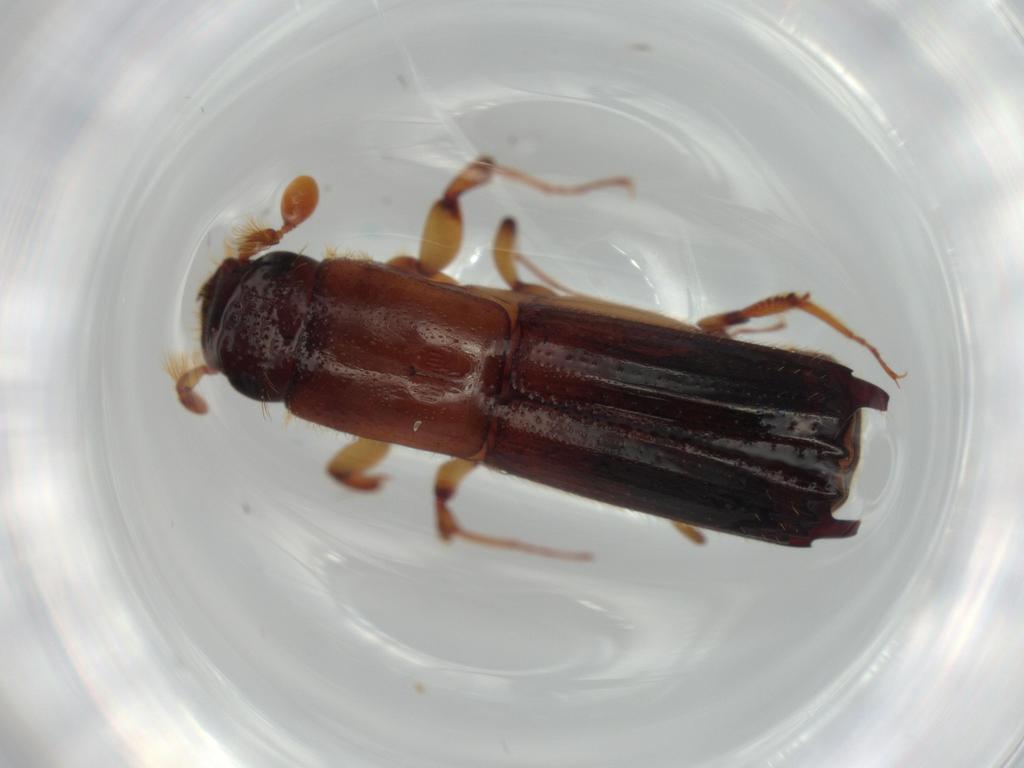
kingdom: Animalia
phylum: Arthropoda
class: Insecta
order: Coleoptera
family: Curculionidae
